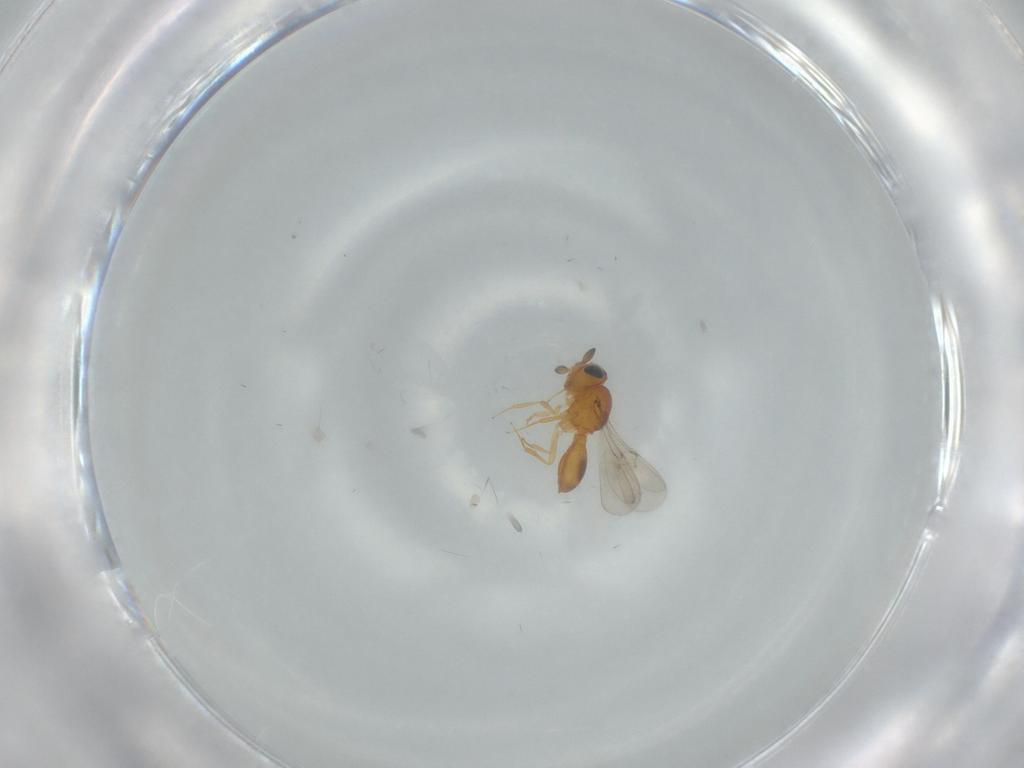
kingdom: Animalia
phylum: Arthropoda
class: Insecta
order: Hymenoptera
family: Scelionidae
